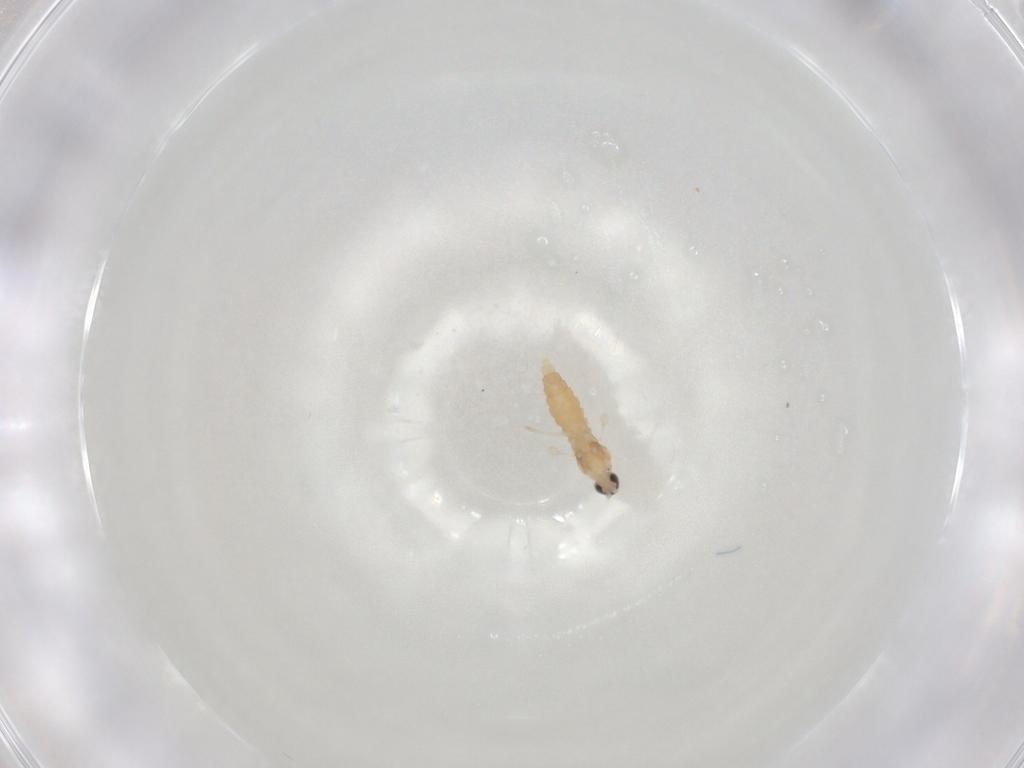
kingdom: Animalia
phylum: Arthropoda
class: Insecta
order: Diptera
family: Cecidomyiidae
